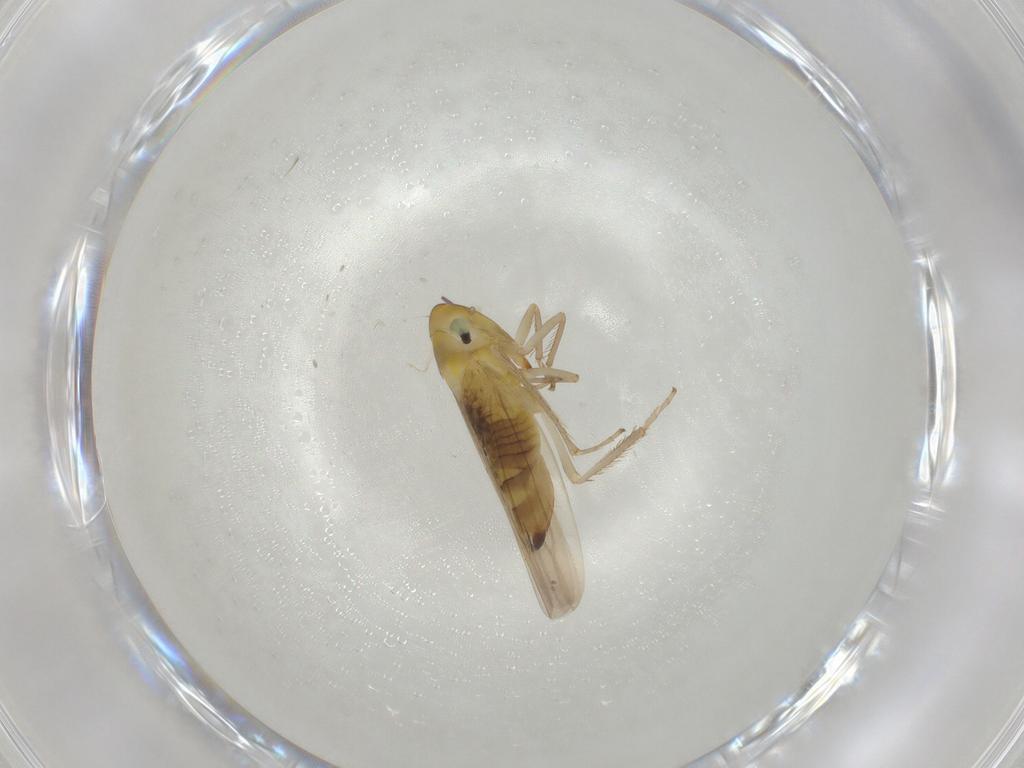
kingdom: Animalia
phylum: Arthropoda
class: Insecta
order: Hemiptera
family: Cicadellidae
